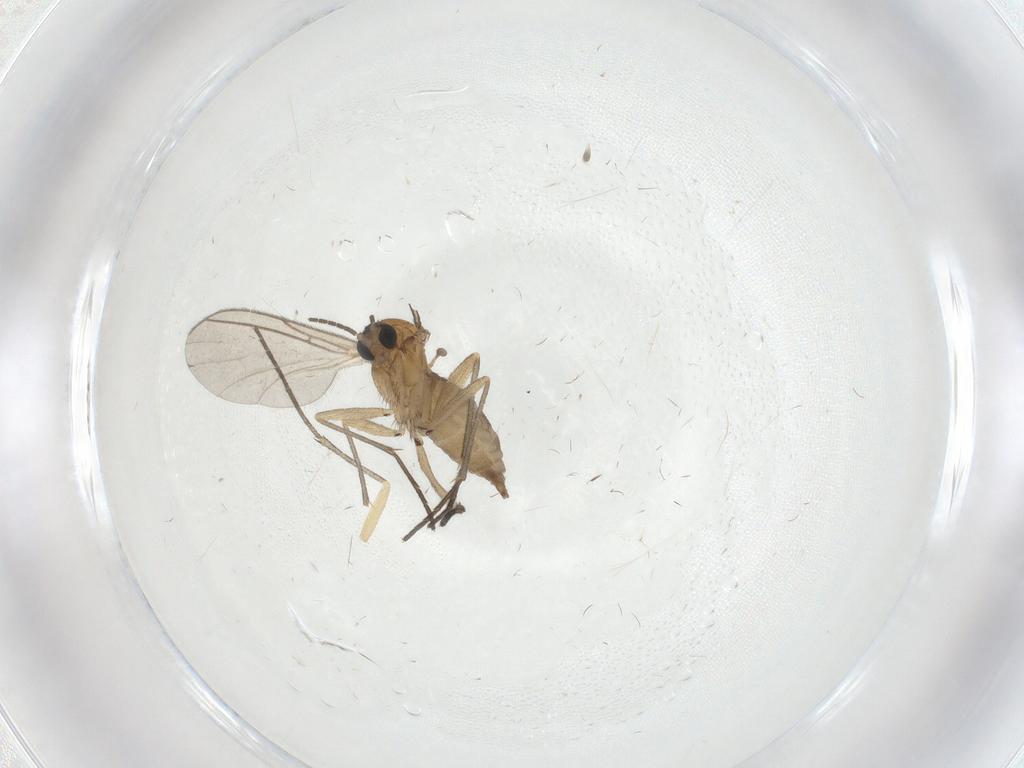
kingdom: Animalia
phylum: Arthropoda
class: Insecta
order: Diptera
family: Sciaridae
